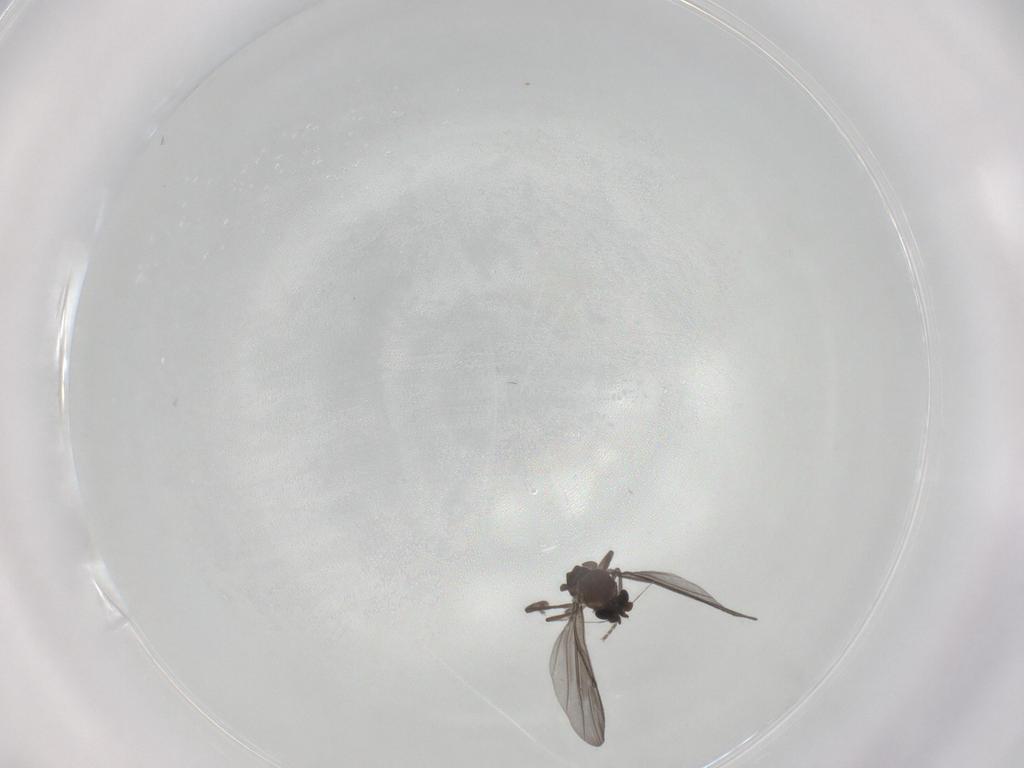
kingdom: Animalia
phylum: Arthropoda
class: Insecta
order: Diptera
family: Phoridae
